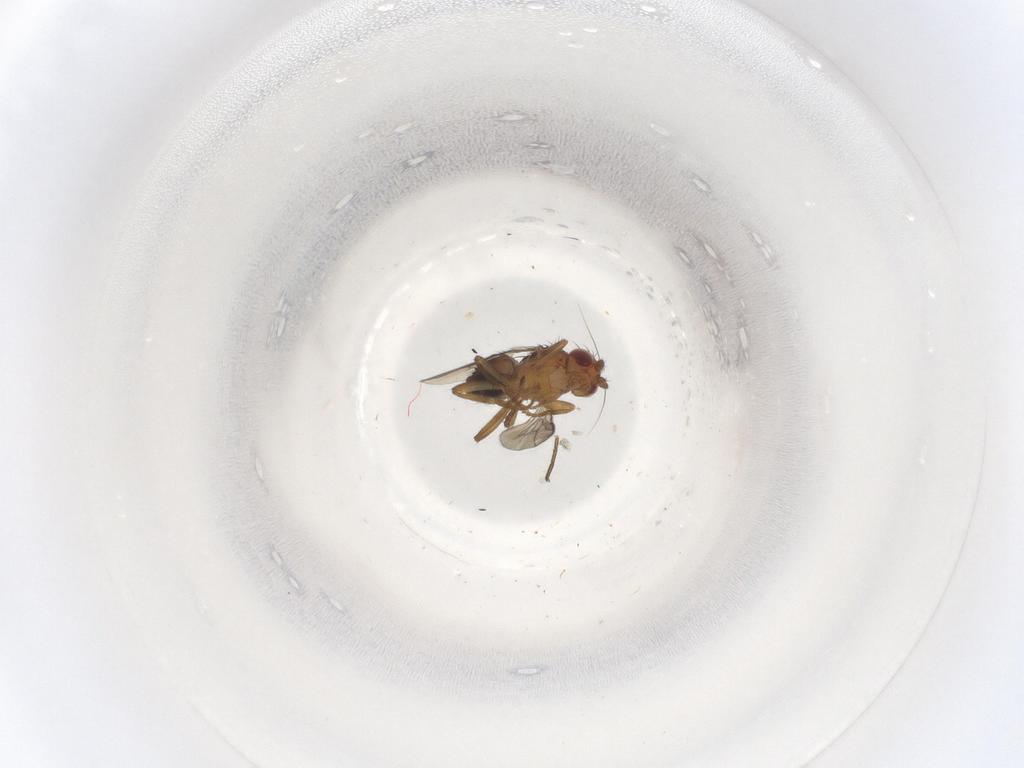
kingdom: Animalia
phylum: Arthropoda
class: Insecta
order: Diptera
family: Sphaeroceridae
